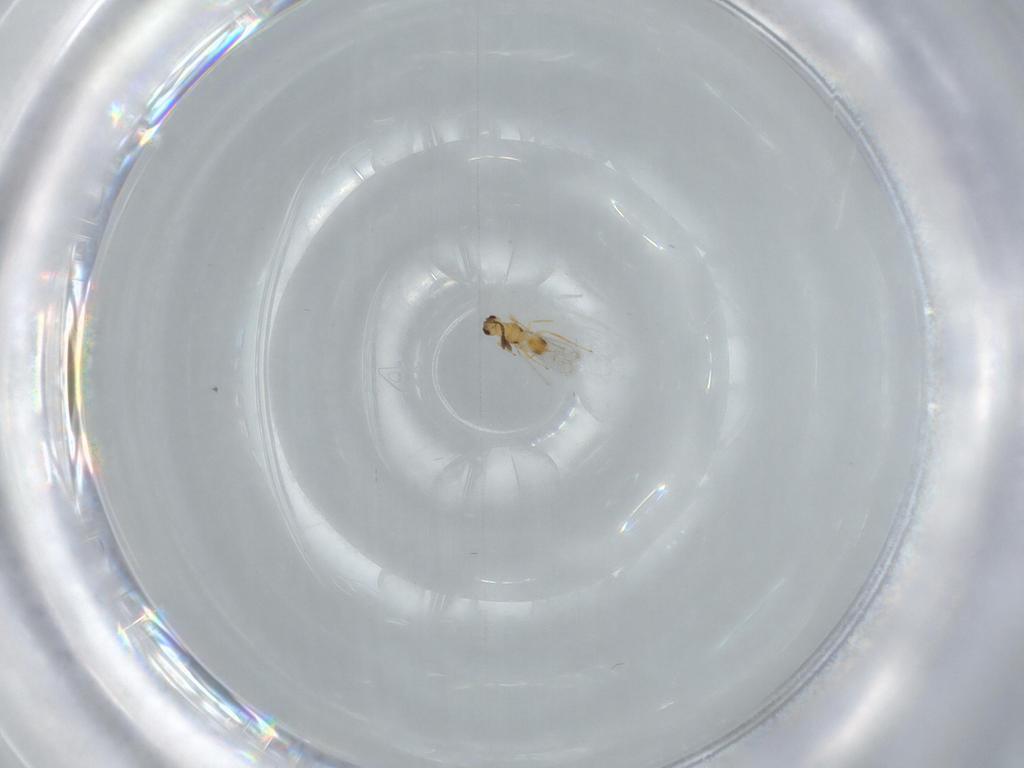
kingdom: Animalia
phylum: Arthropoda
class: Insecta
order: Hymenoptera
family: Mymaridae
